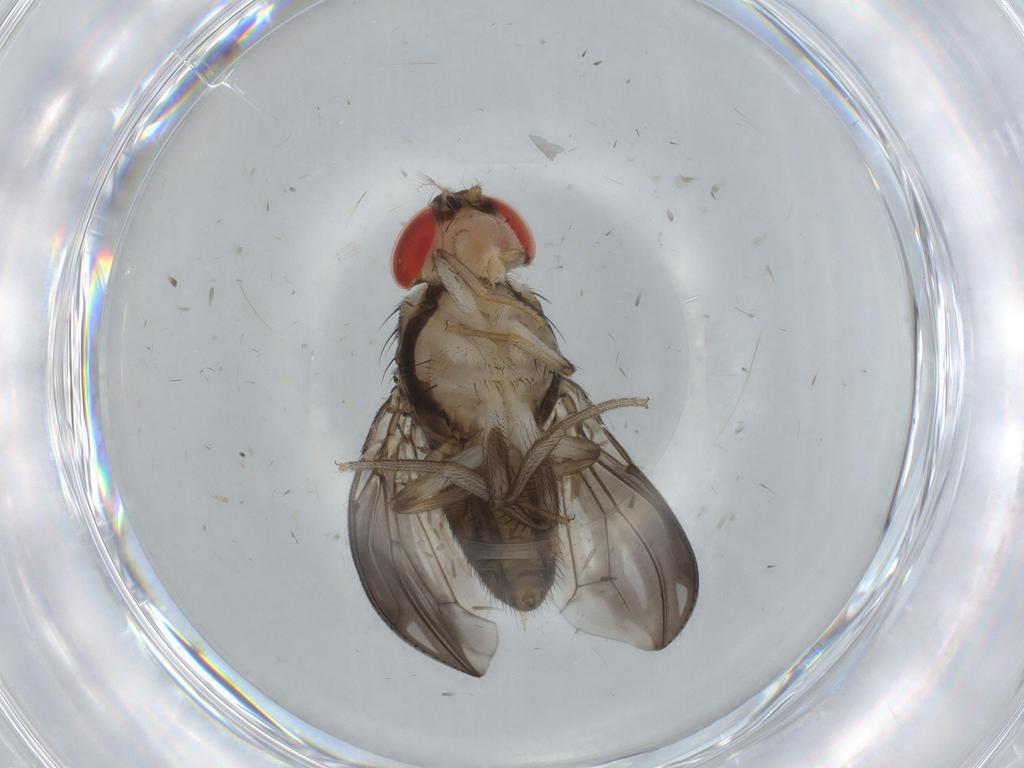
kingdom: Animalia
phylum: Arthropoda
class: Insecta
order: Diptera
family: Drosophilidae
